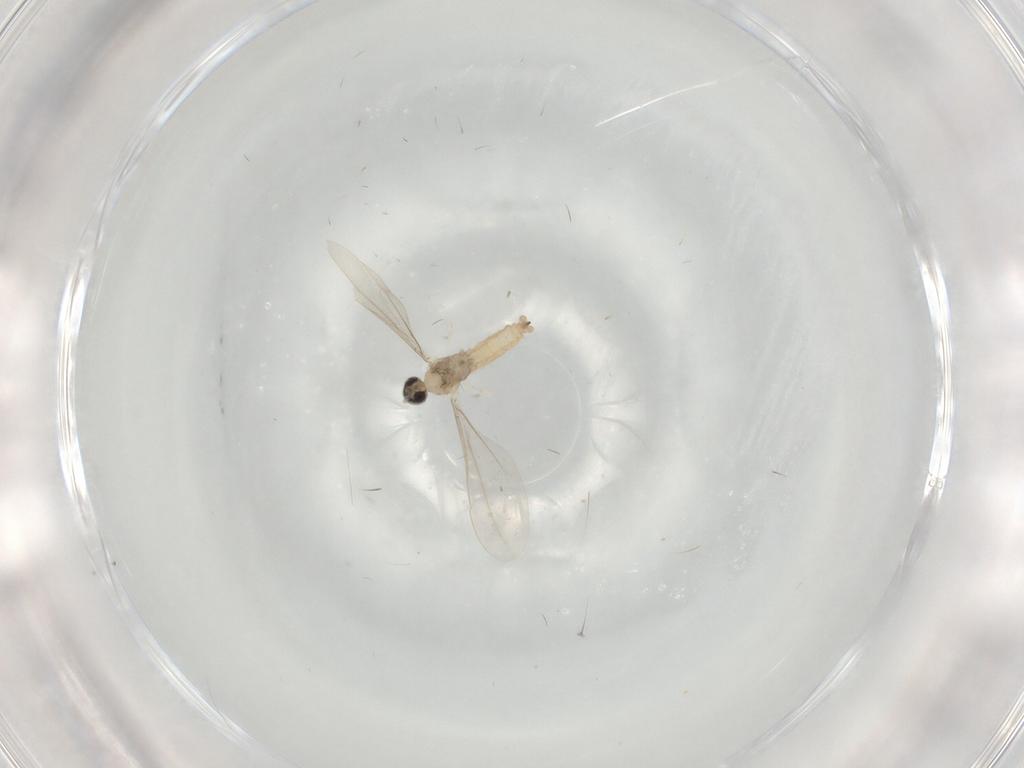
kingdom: Animalia
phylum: Arthropoda
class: Insecta
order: Diptera
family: Cecidomyiidae
